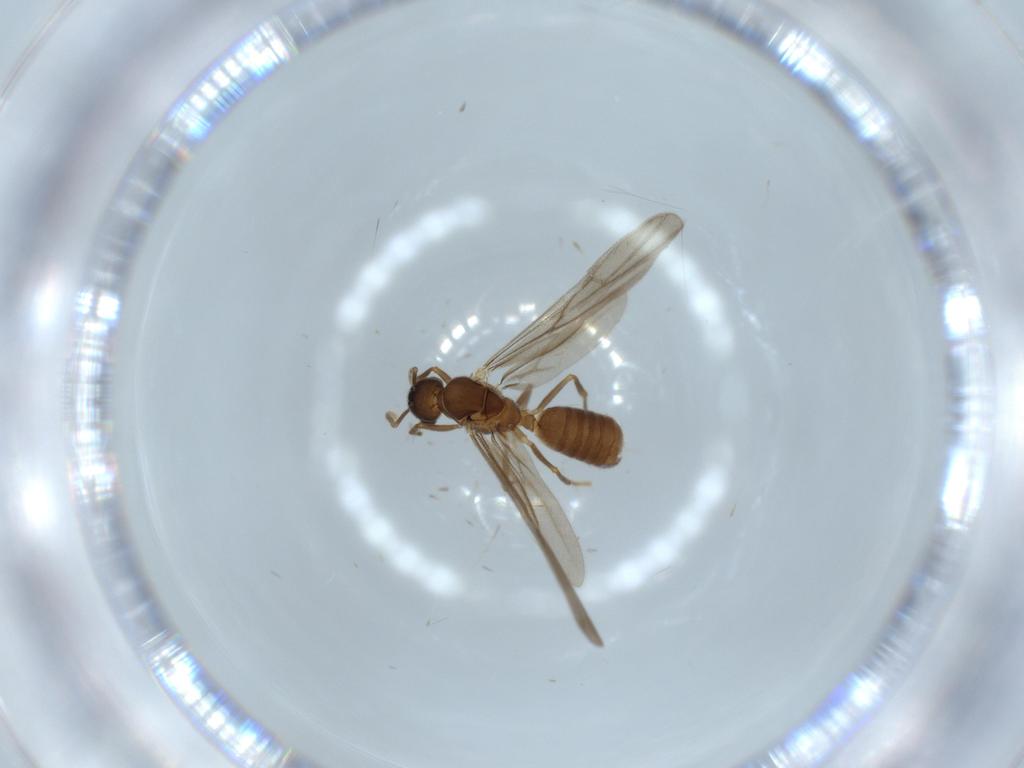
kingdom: Animalia
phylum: Arthropoda
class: Insecta
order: Hymenoptera
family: Formicidae
